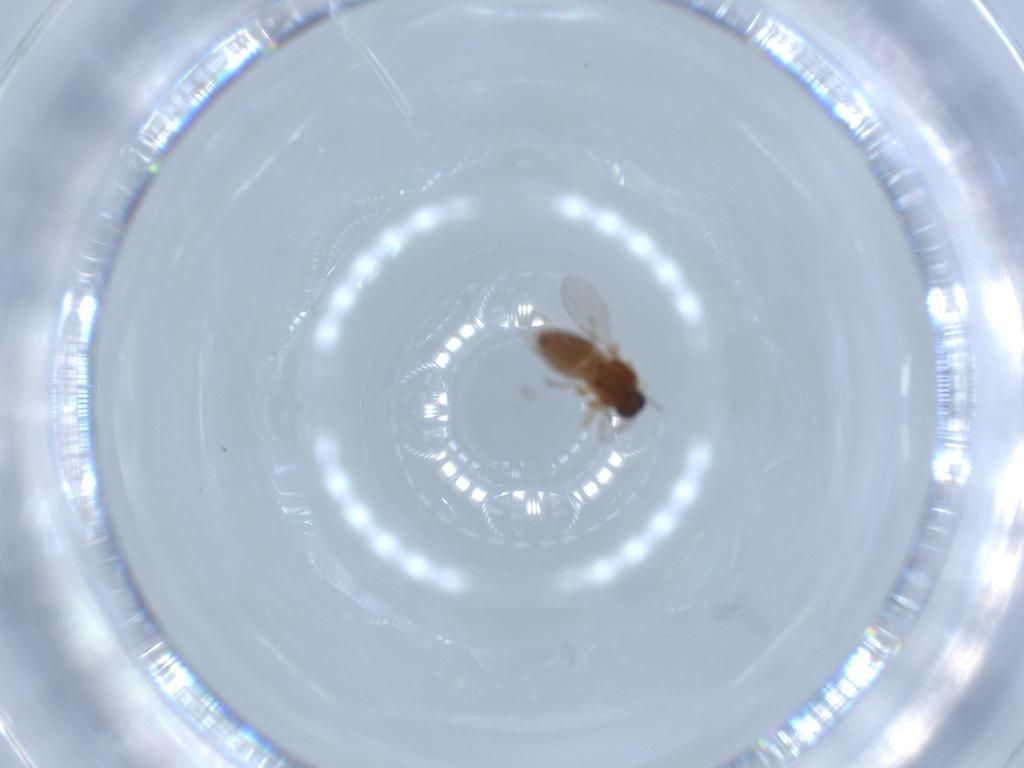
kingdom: Animalia
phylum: Arthropoda
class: Insecta
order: Diptera
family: Ceratopogonidae
